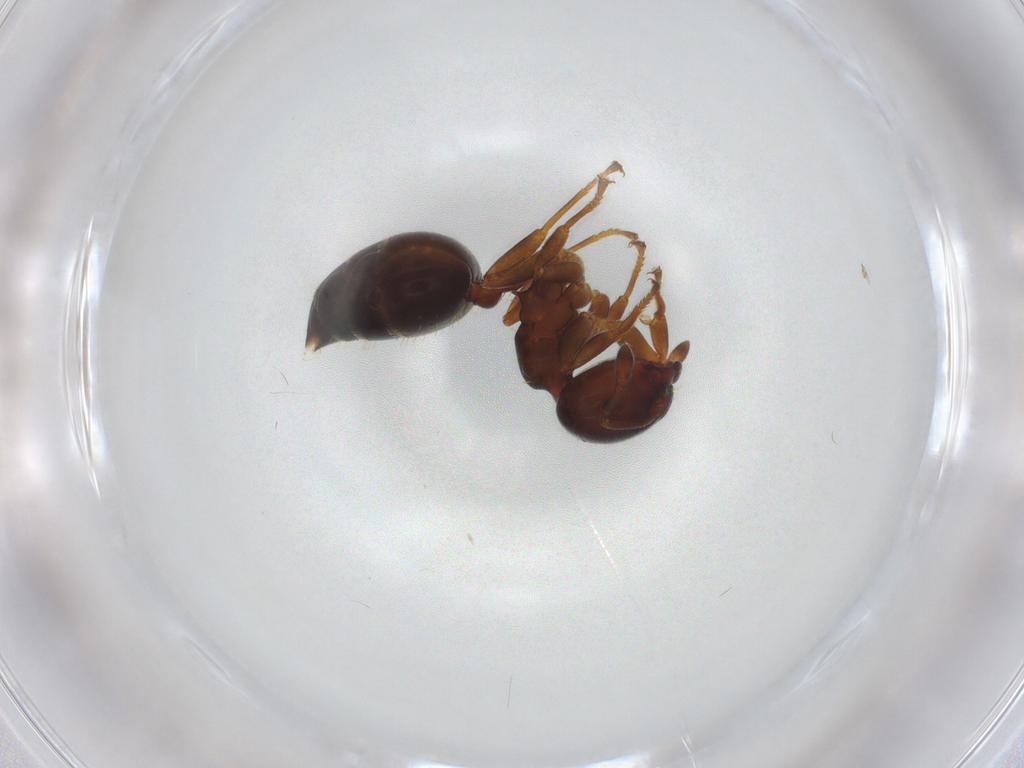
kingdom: Animalia
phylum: Arthropoda
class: Insecta
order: Hymenoptera
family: Formicidae
